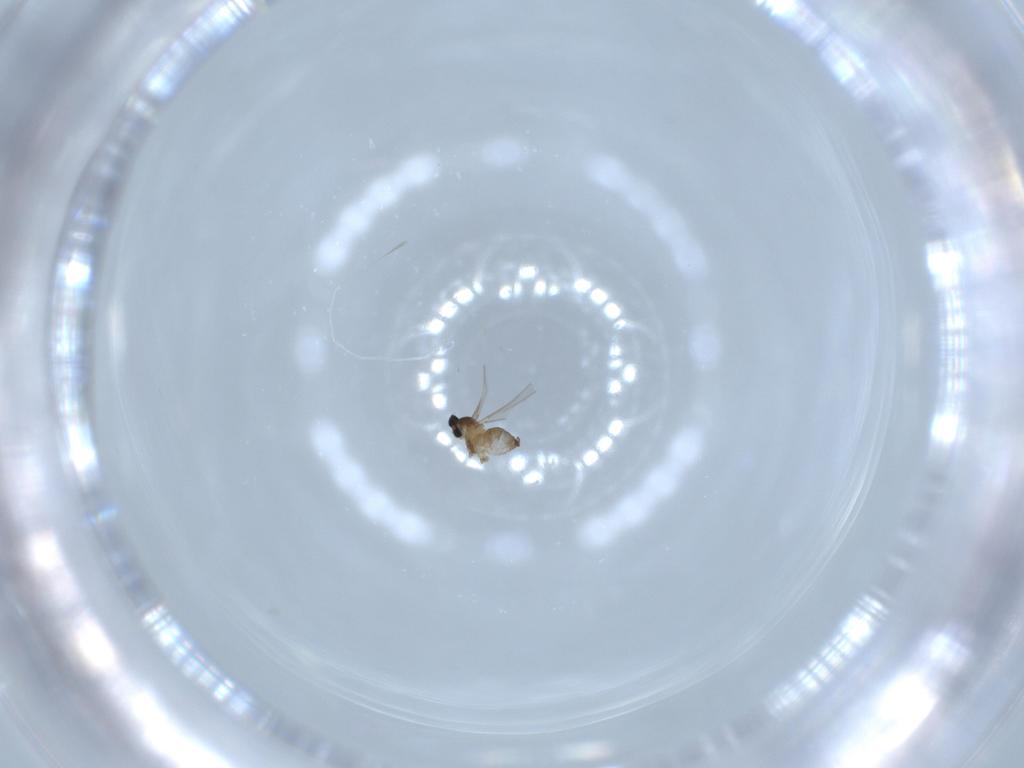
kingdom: Animalia
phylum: Arthropoda
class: Insecta
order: Diptera
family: Cecidomyiidae
